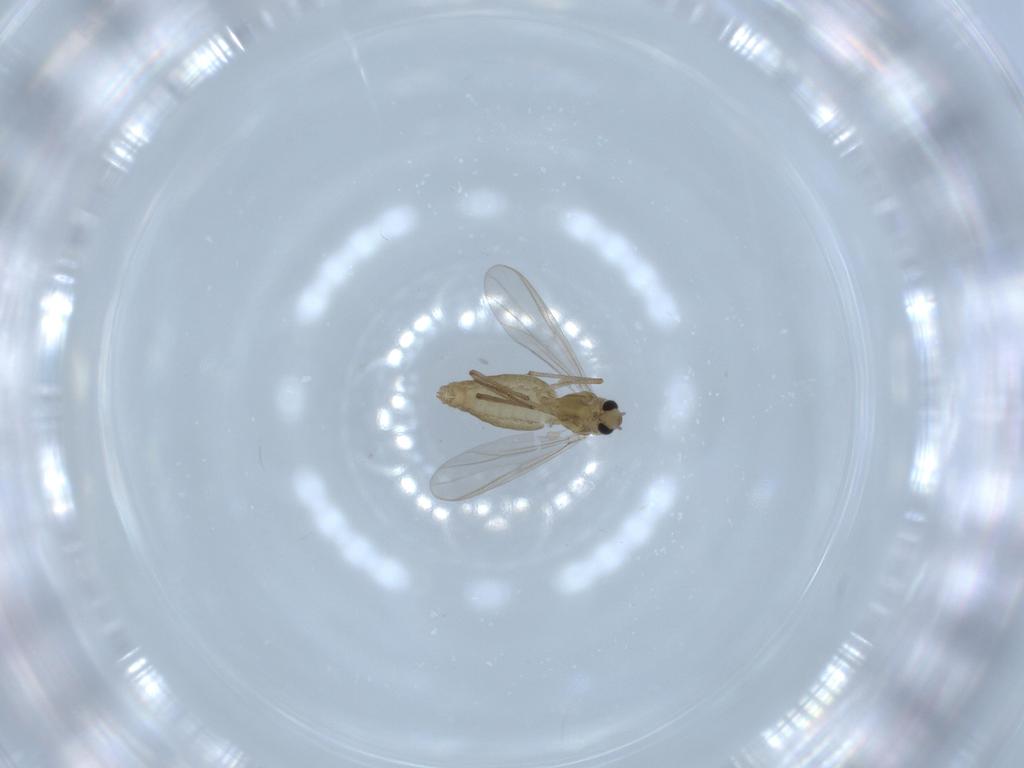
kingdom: Animalia
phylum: Arthropoda
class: Insecta
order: Diptera
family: Chironomidae
